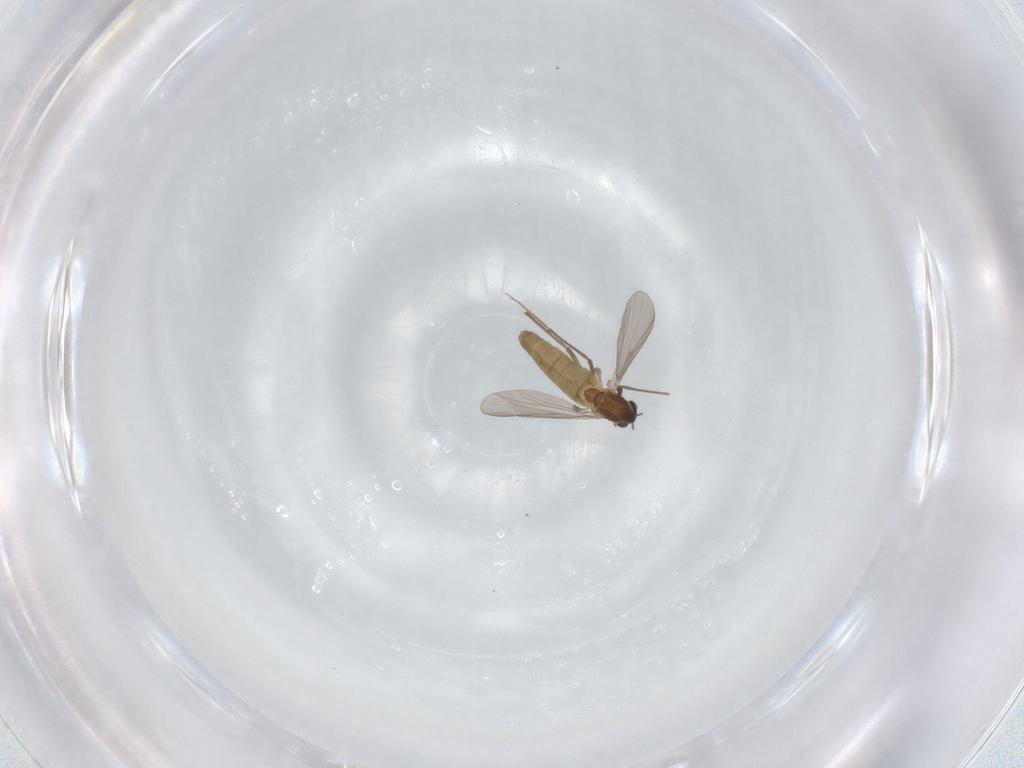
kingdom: Animalia
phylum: Arthropoda
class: Insecta
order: Diptera
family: Chironomidae
